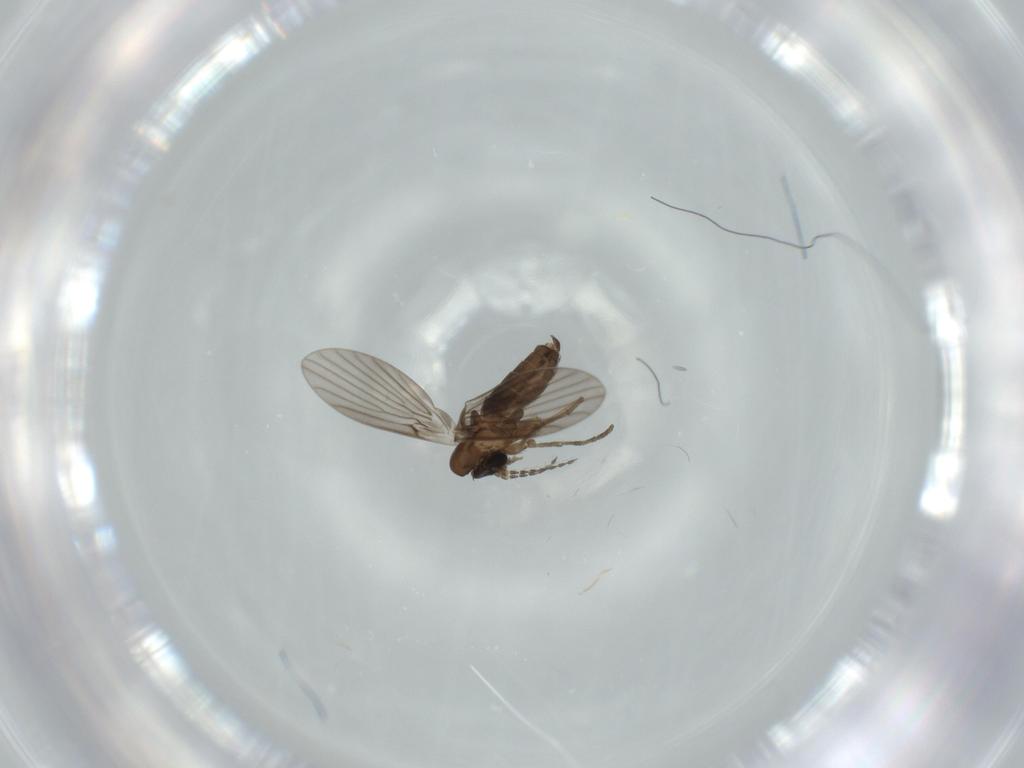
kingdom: Animalia
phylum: Arthropoda
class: Insecta
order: Diptera
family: Psychodidae
